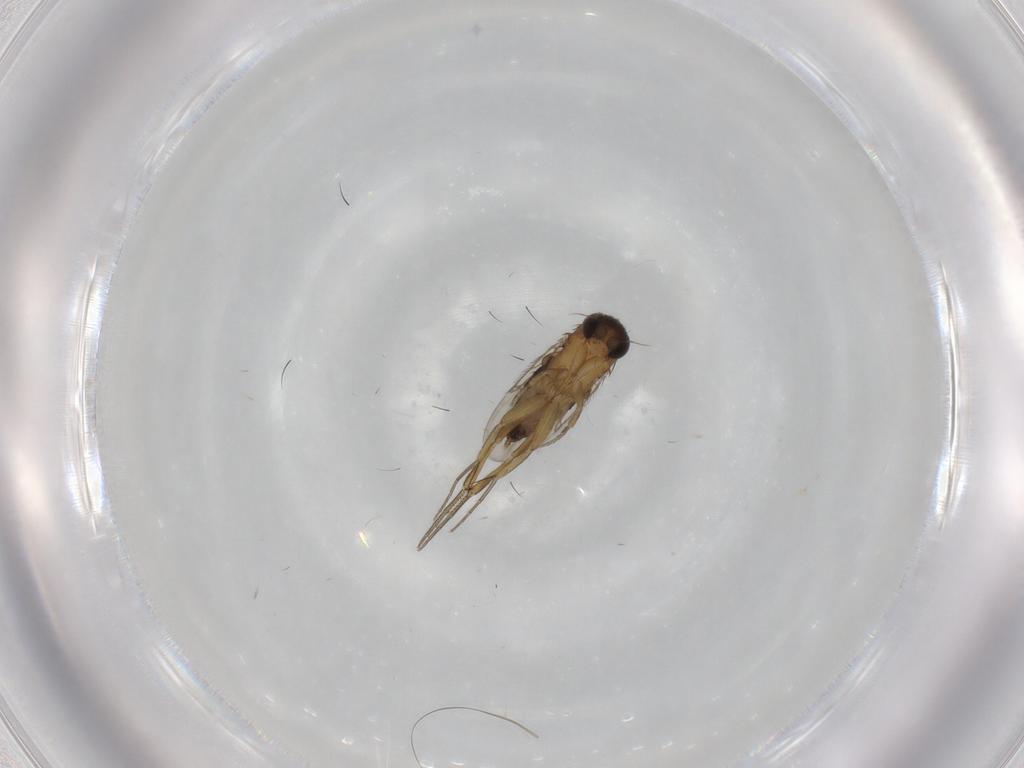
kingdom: Animalia
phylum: Arthropoda
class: Insecta
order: Diptera
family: Phoridae
